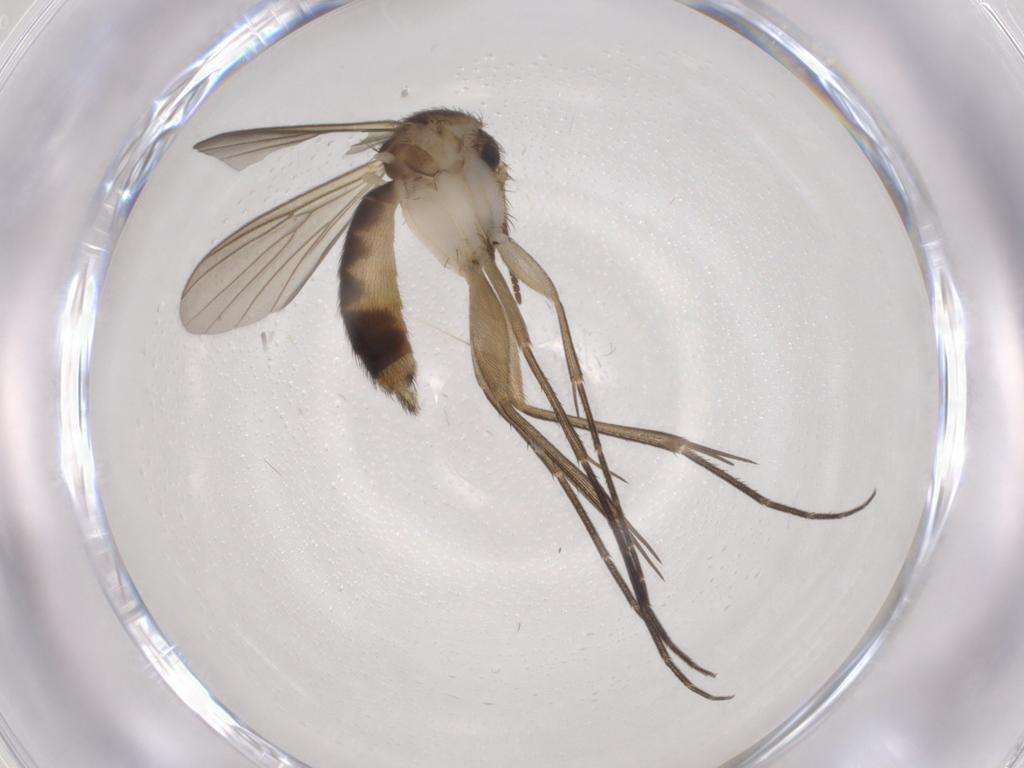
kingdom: Animalia
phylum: Arthropoda
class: Insecta
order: Diptera
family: Mycetophilidae
